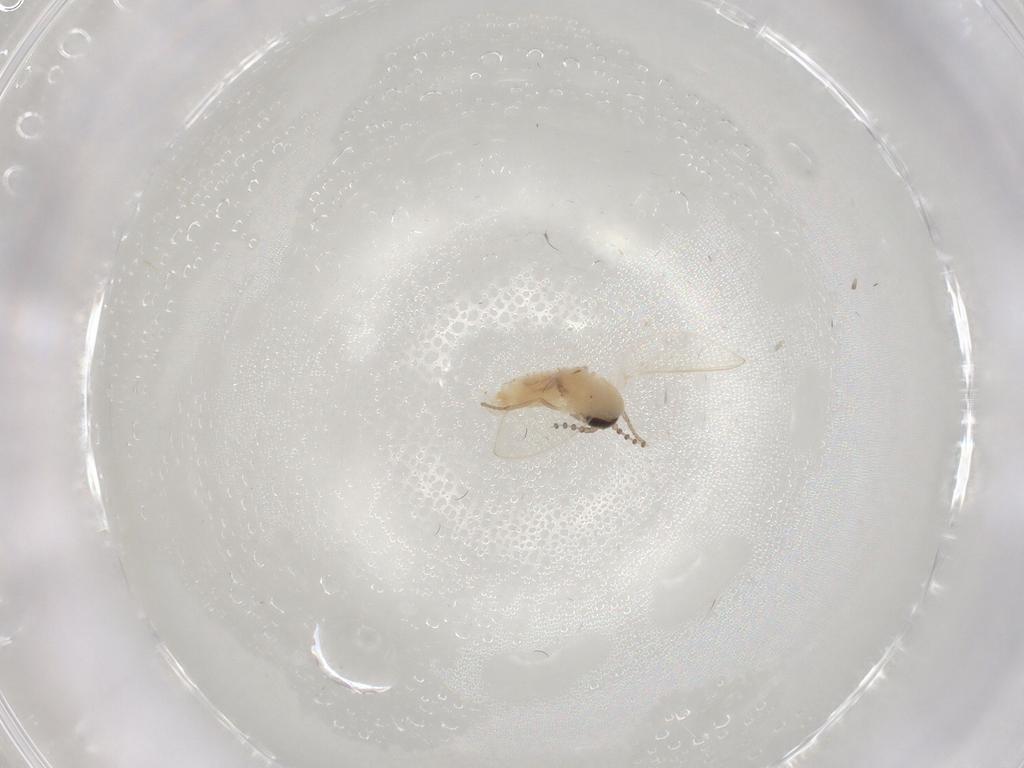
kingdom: Animalia
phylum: Arthropoda
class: Insecta
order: Diptera
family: Psychodidae
